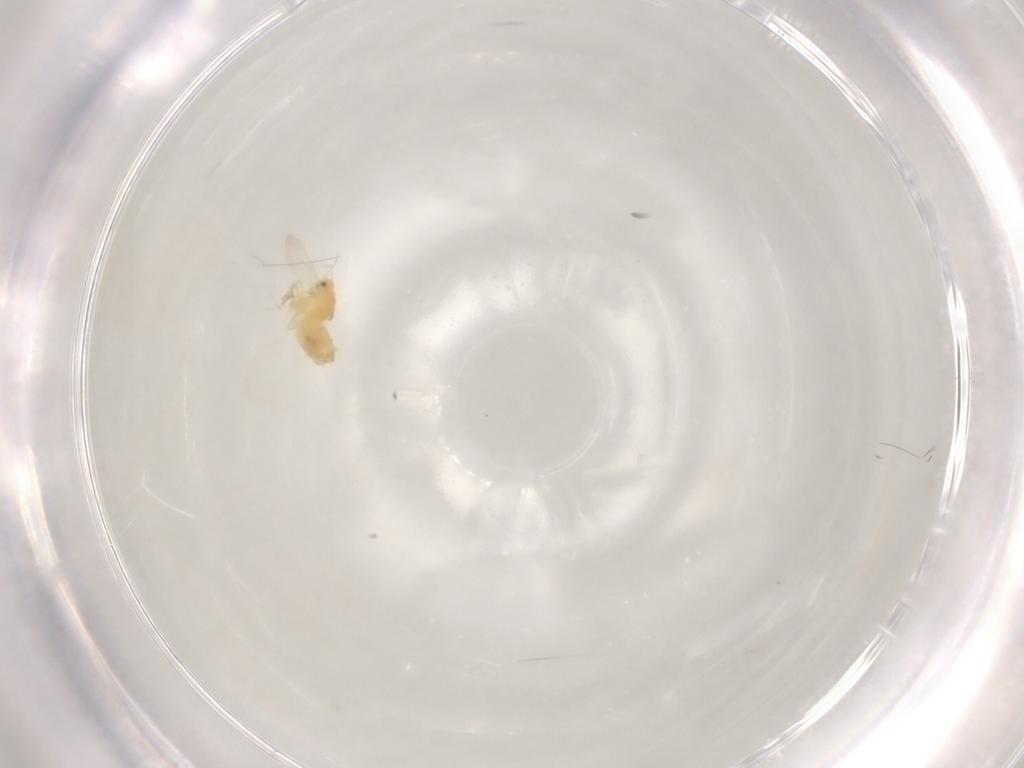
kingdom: Animalia
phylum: Arthropoda
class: Insecta
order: Hemiptera
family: Aleyrodidae
